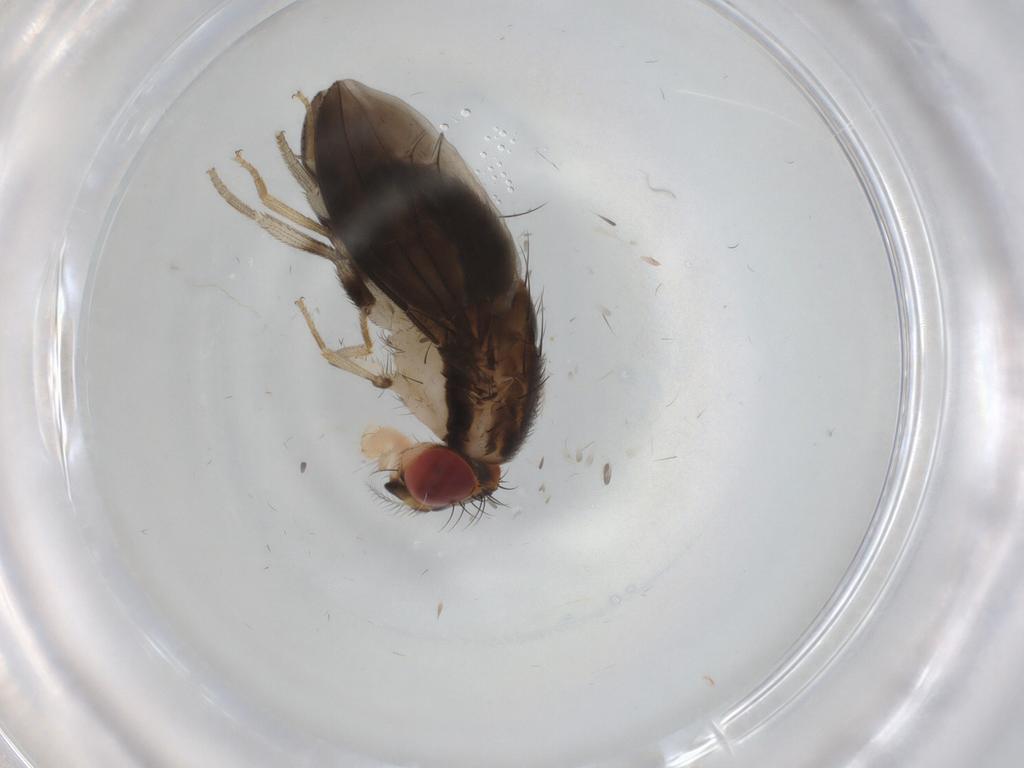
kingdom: Animalia
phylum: Arthropoda
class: Insecta
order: Diptera
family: Drosophilidae
